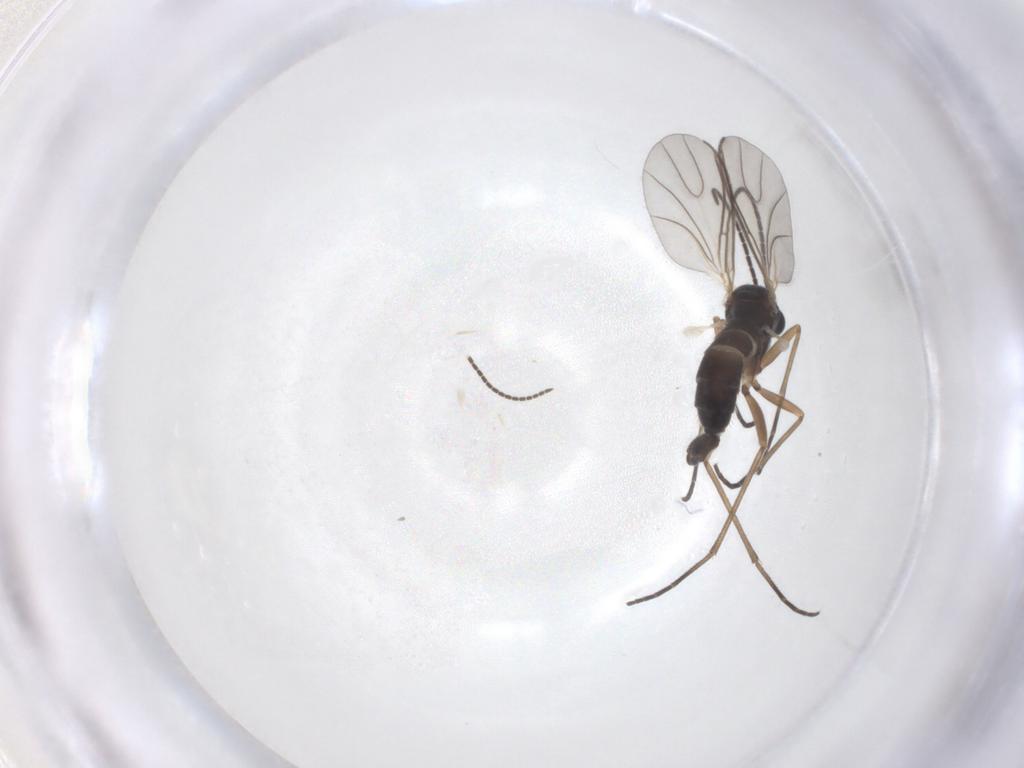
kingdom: Animalia
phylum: Arthropoda
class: Insecta
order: Diptera
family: Sciaridae
